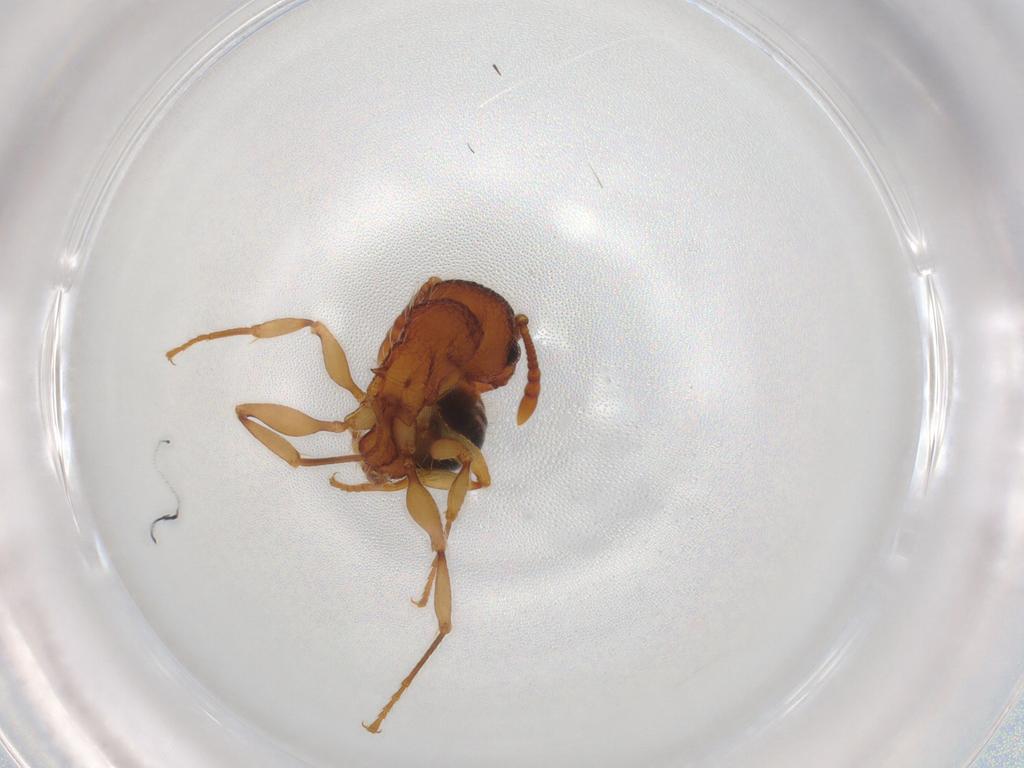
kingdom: Animalia
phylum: Arthropoda
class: Insecta
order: Hymenoptera
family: Formicidae
